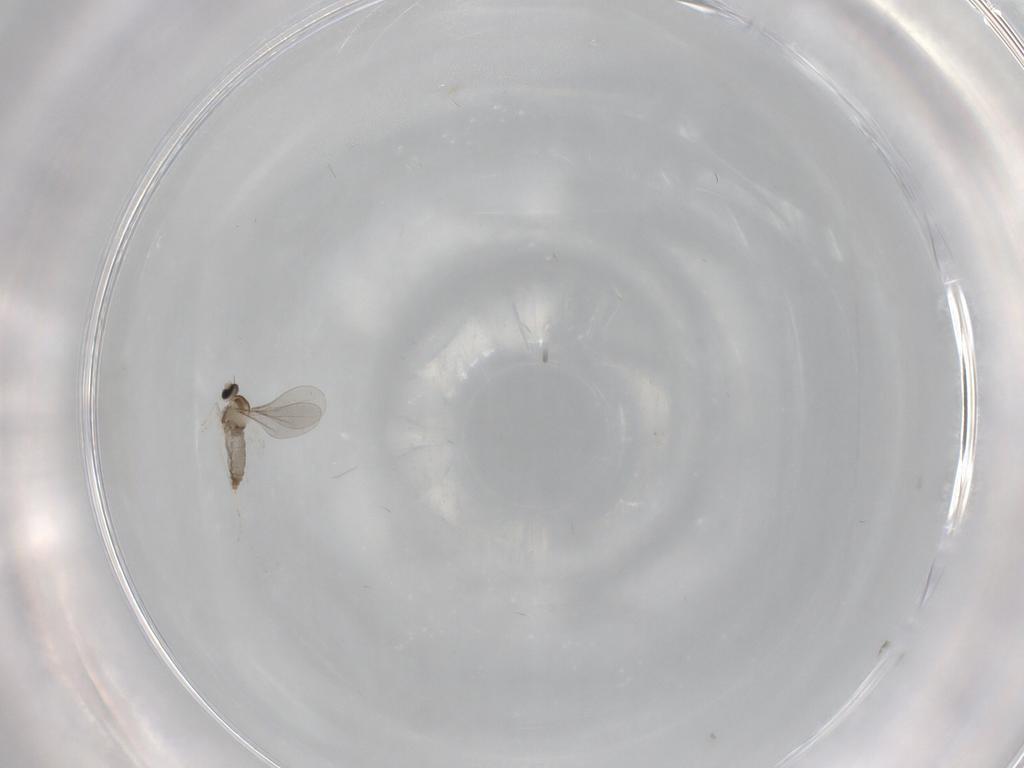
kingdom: Animalia
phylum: Arthropoda
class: Insecta
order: Diptera
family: Cecidomyiidae
